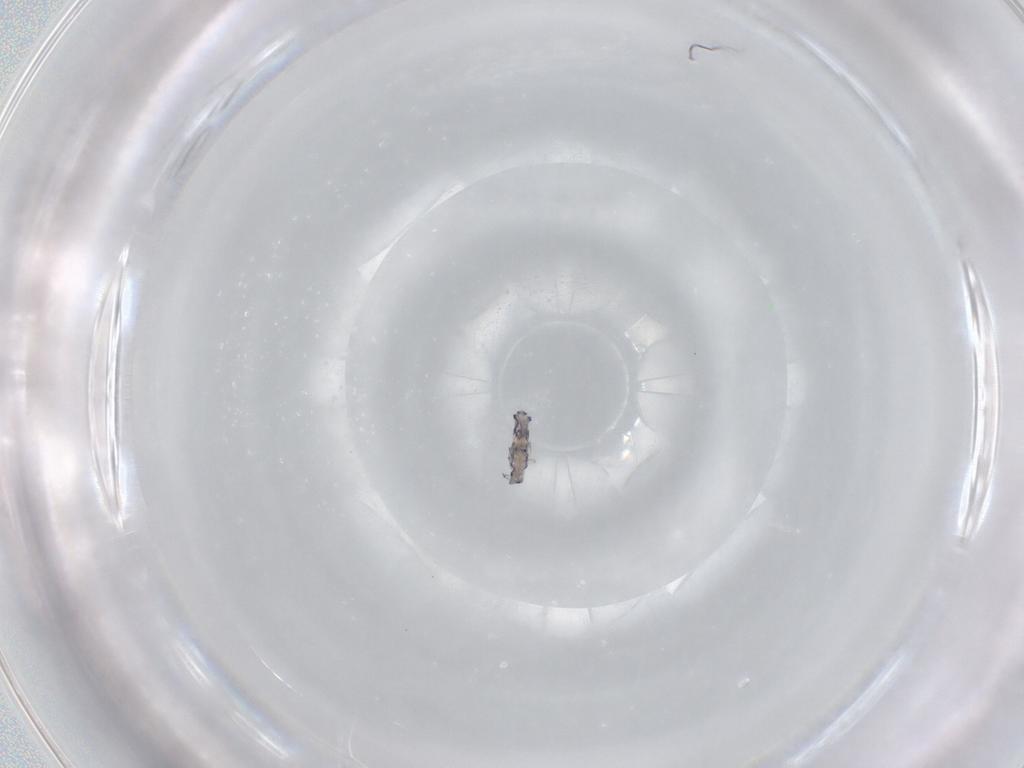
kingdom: Animalia
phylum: Arthropoda
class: Collembola
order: Entomobryomorpha
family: Entomobryidae
